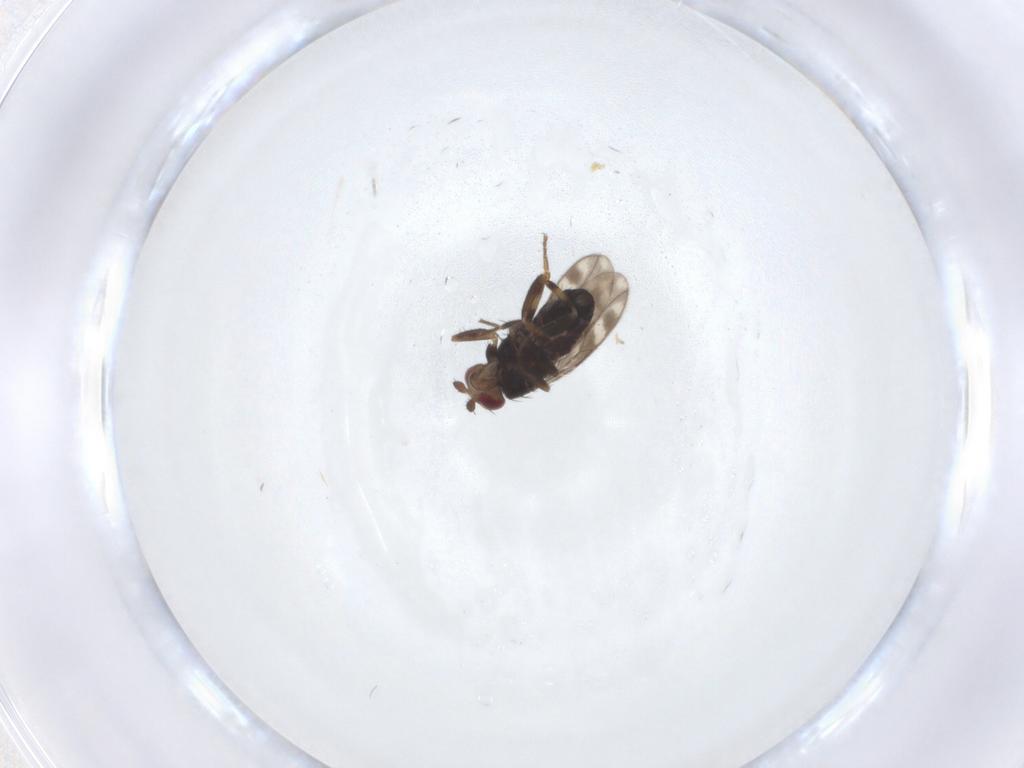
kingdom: Animalia
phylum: Arthropoda
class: Insecta
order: Diptera
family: Sphaeroceridae
